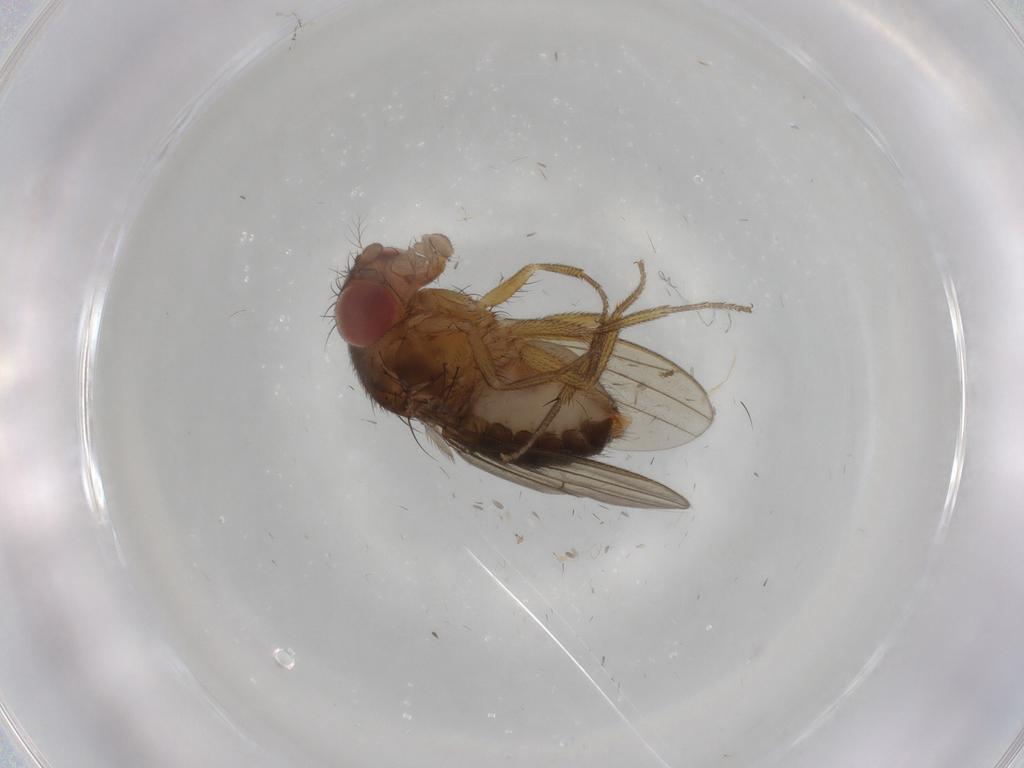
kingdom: Animalia
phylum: Arthropoda
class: Insecta
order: Diptera
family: Drosophilidae
